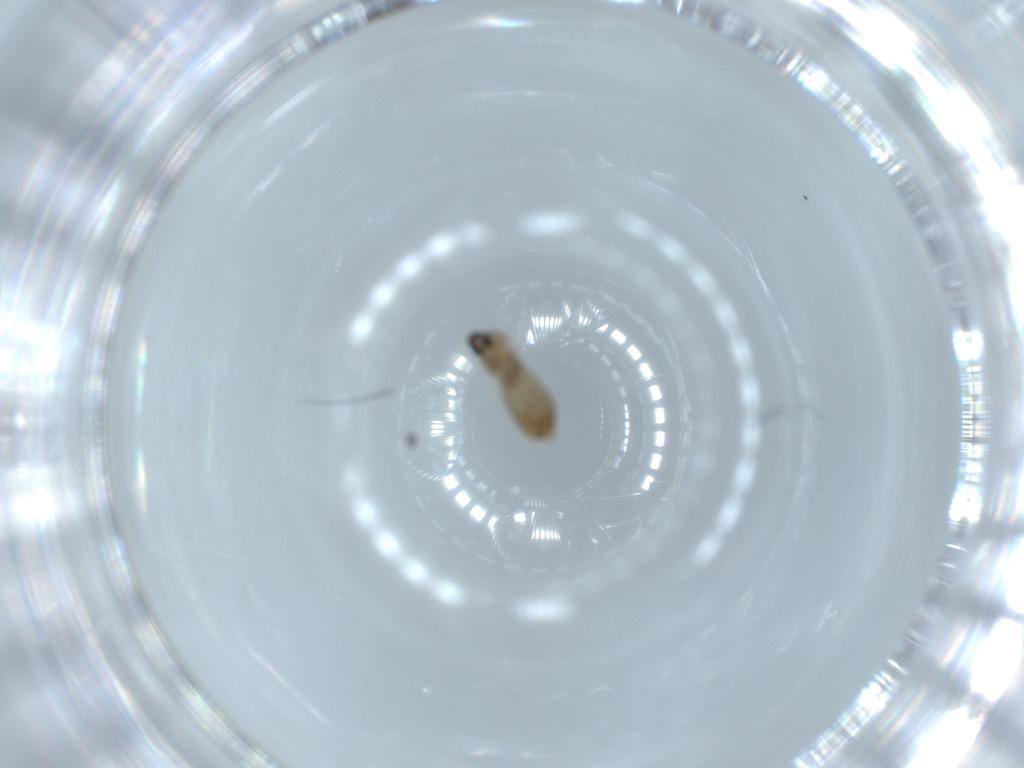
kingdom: Animalia
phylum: Arthropoda
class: Insecta
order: Diptera
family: Cecidomyiidae
